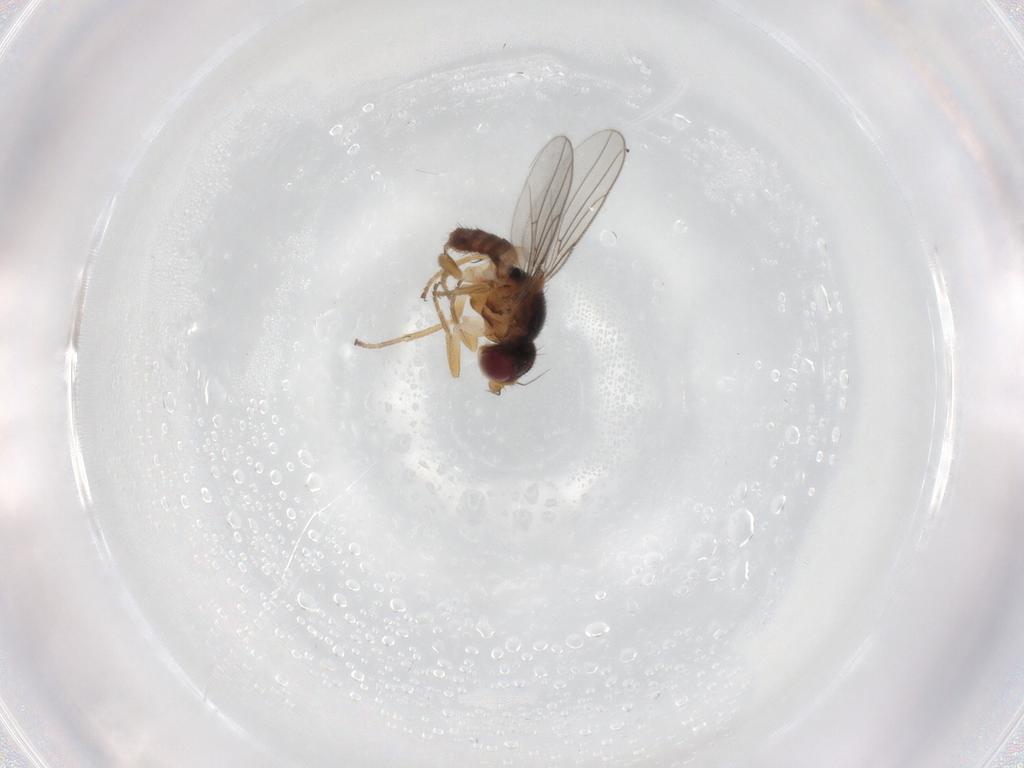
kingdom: Animalia
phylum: Arthropoda
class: Insecta
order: Diptera
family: Chloropidae
